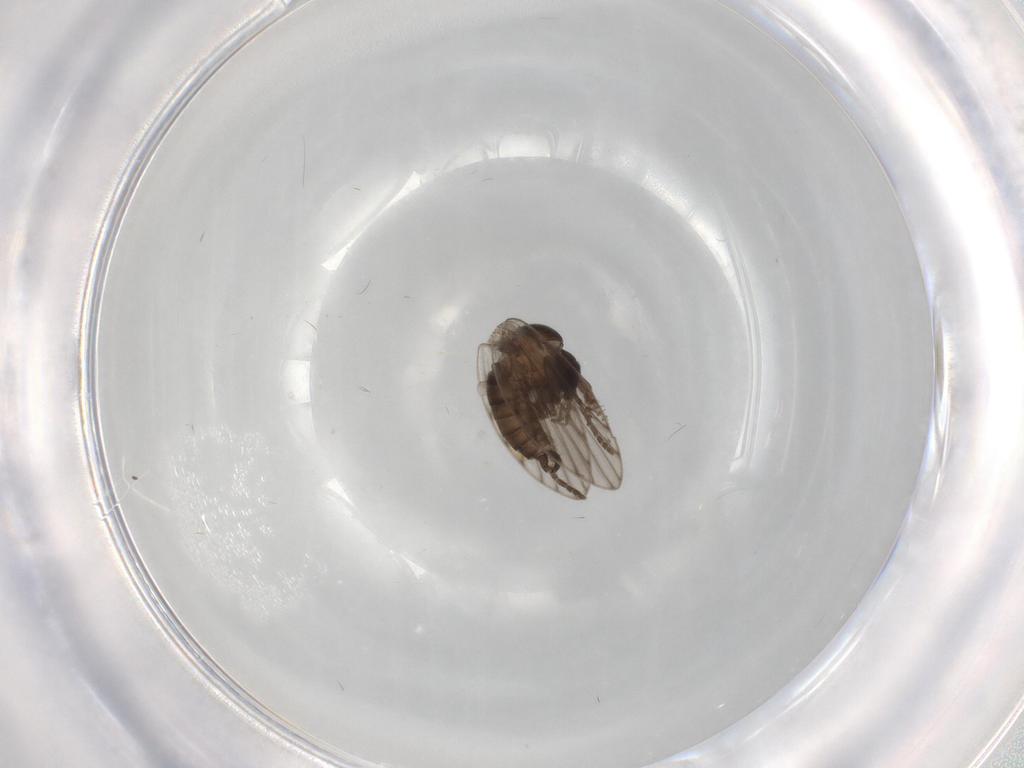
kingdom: Animalia
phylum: Arthropoda
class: Insecta
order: Diptera
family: Psychodidae
